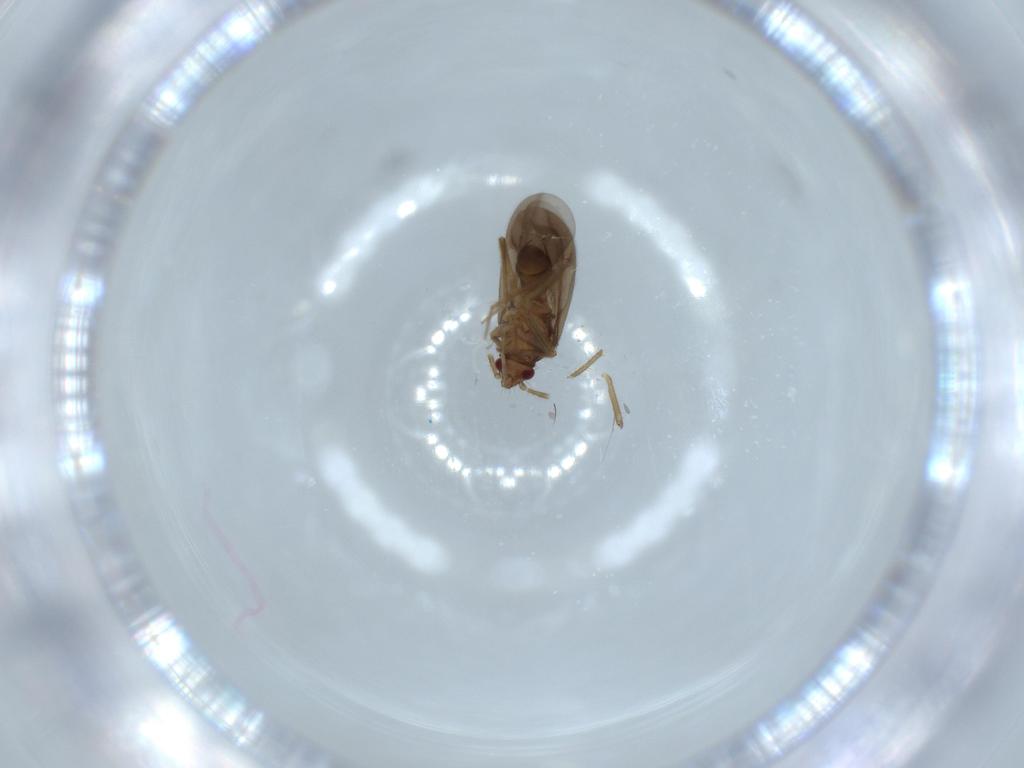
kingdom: Animalia
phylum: Arthropoda
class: Insecta
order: Hemiptera
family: Ceratocombidae
